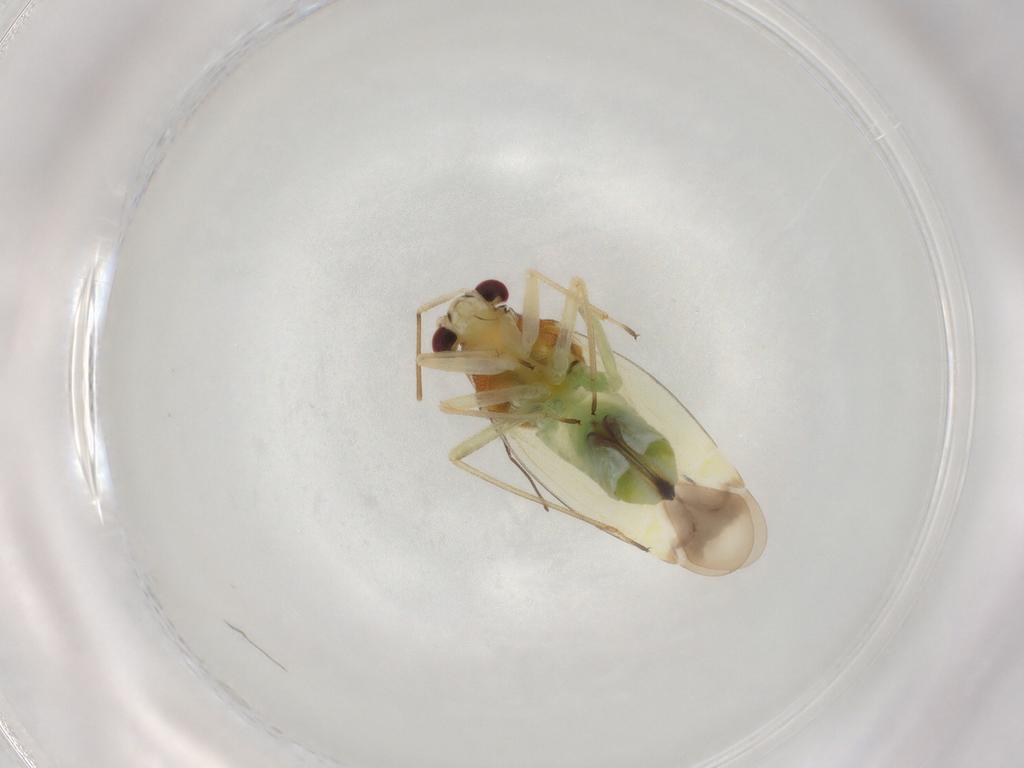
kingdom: Animalia
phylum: Arthropoda
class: Insecta
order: Hemiptera
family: Miridae
